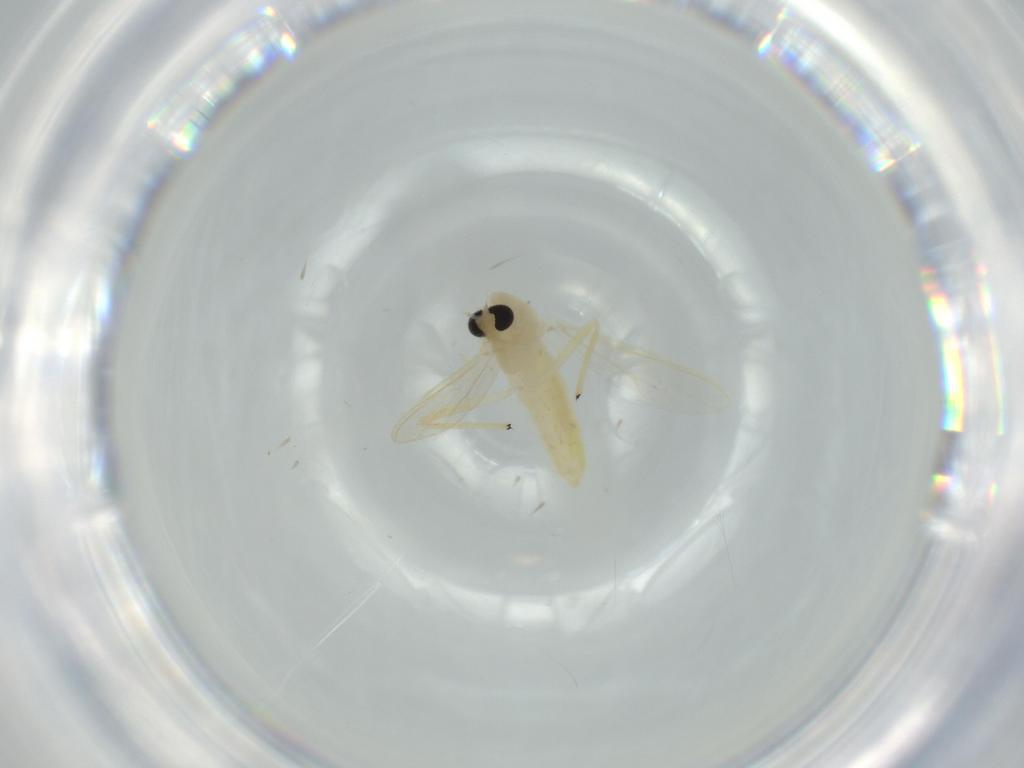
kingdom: Animalia
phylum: Arthropoda
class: Insecta
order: Diptera
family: Chironomidae
